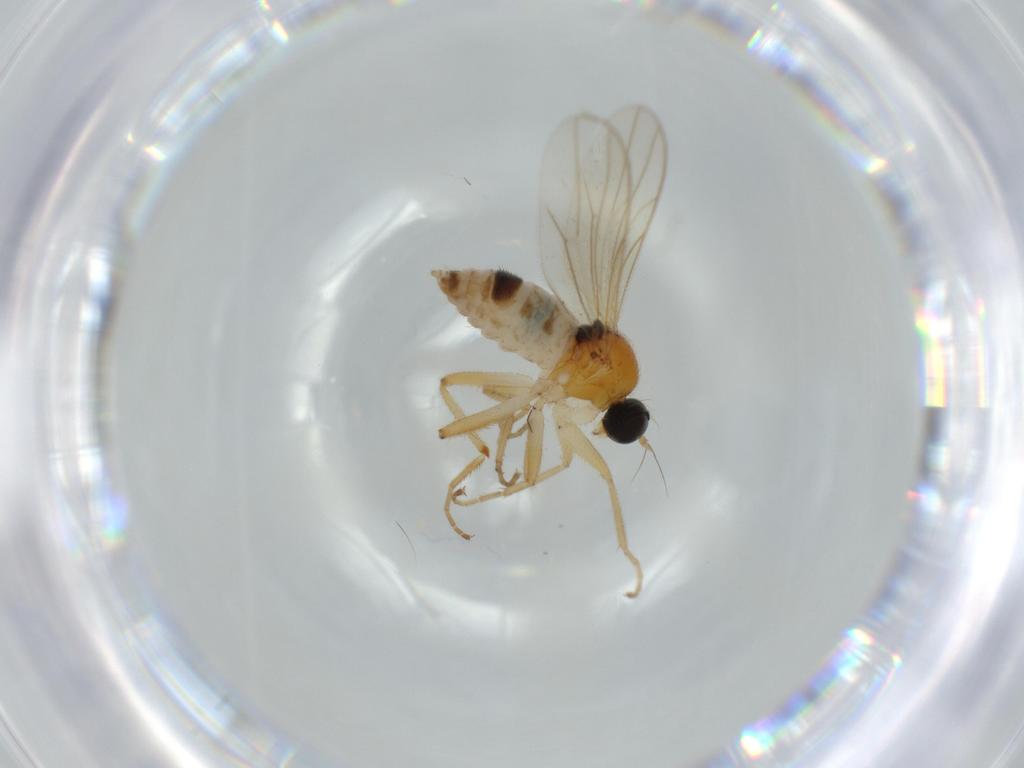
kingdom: Animalia
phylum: Arthropoda
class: Insecta
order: Diptera
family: Hybotidae
